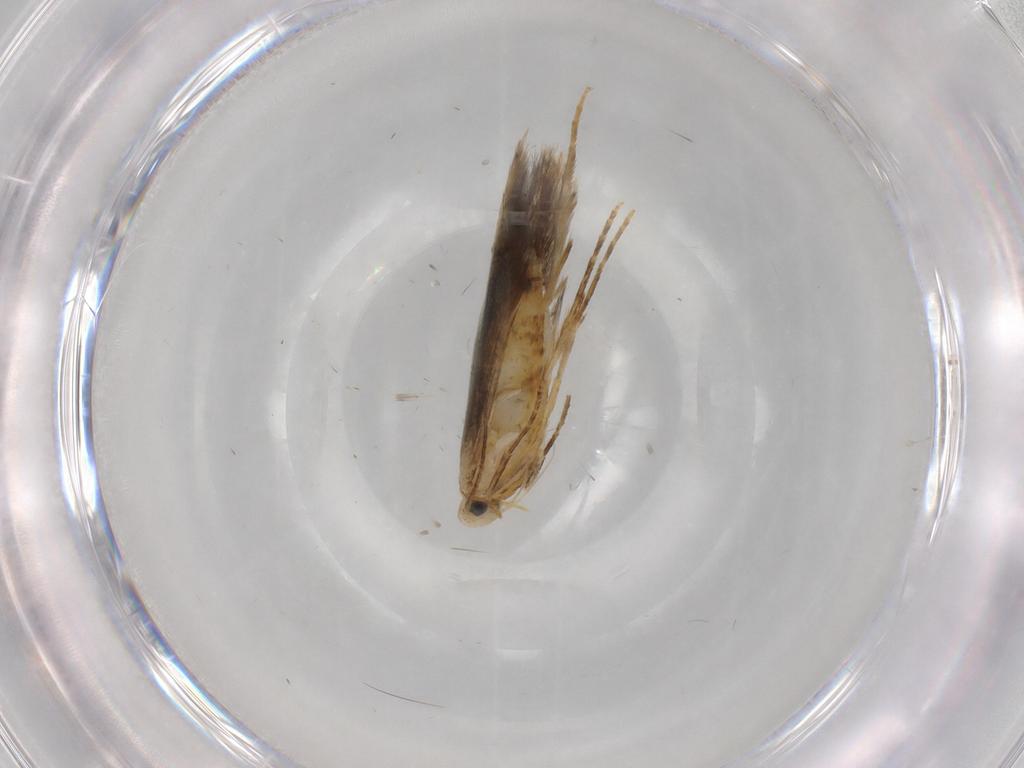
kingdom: Animalia
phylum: Arthropoda
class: Insecta
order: Lepidoptera
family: Tischeriidae
